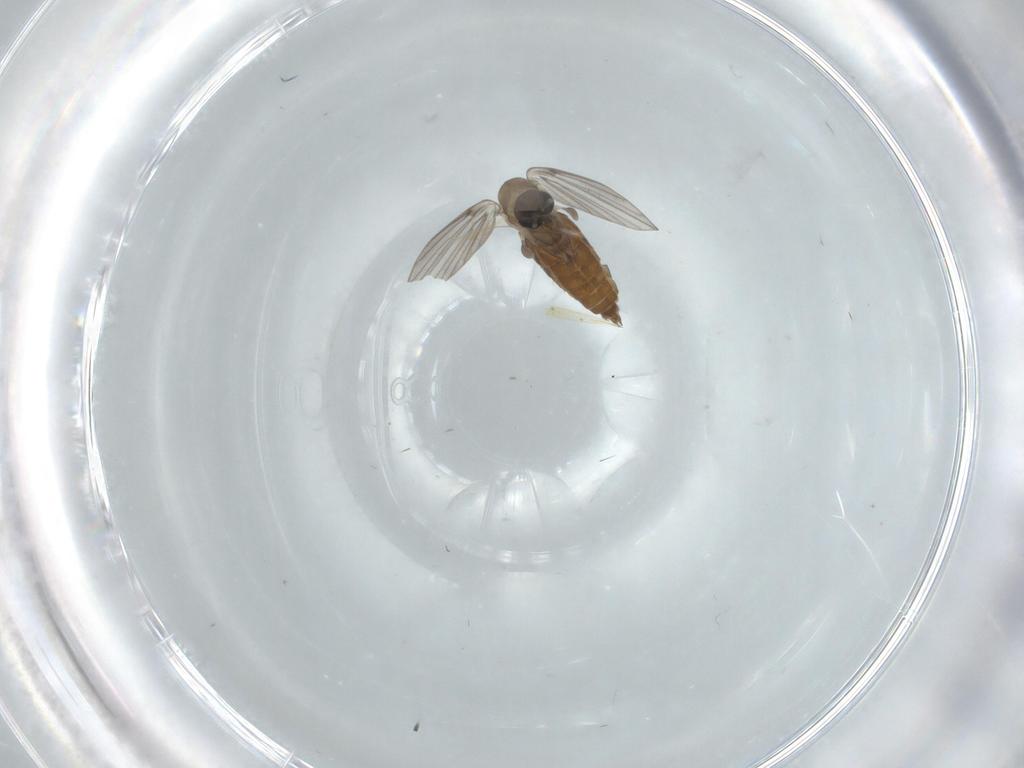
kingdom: Animalia
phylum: Arthropoda
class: Insecta
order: Diptera
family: Psychodidae
